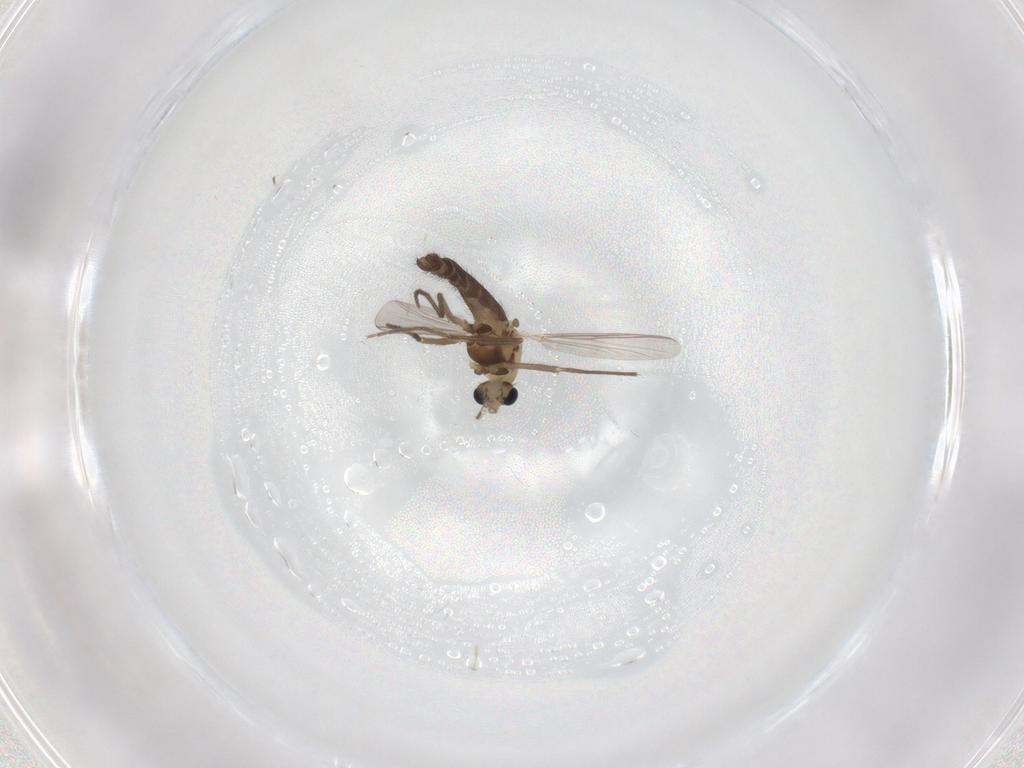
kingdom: Animalia
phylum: Arthropoda
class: Insecta
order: Diptera
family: Chironomidae
